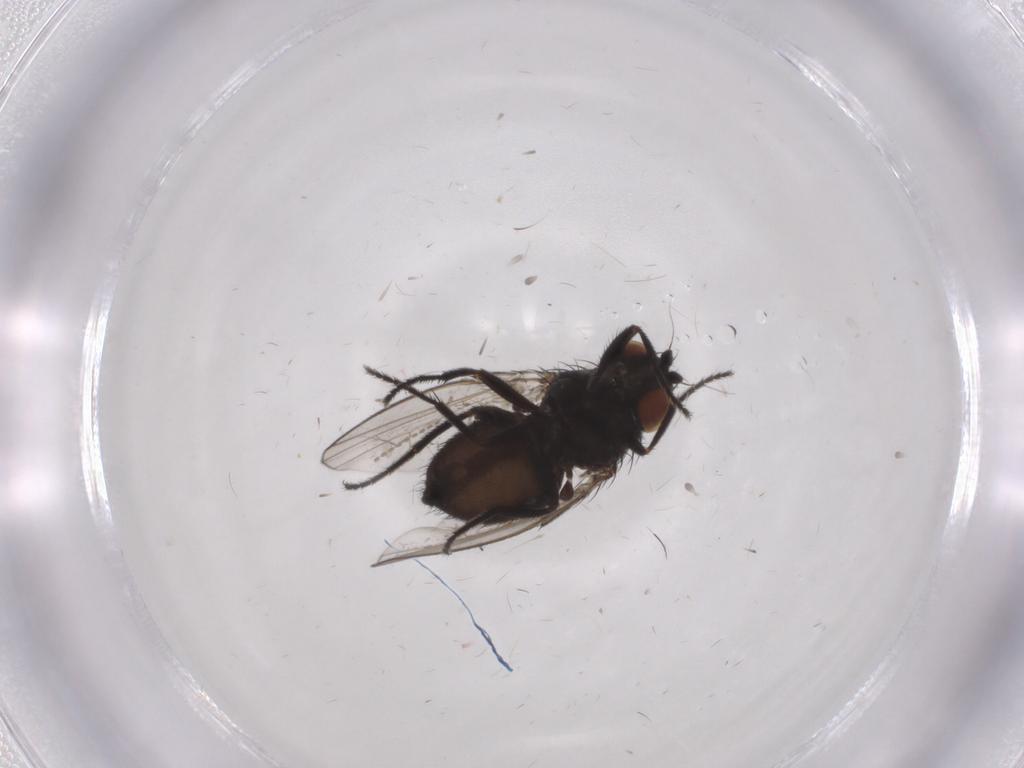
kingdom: Animalia
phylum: Arthropoda
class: Insecta
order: Diptera
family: Milichiidae
